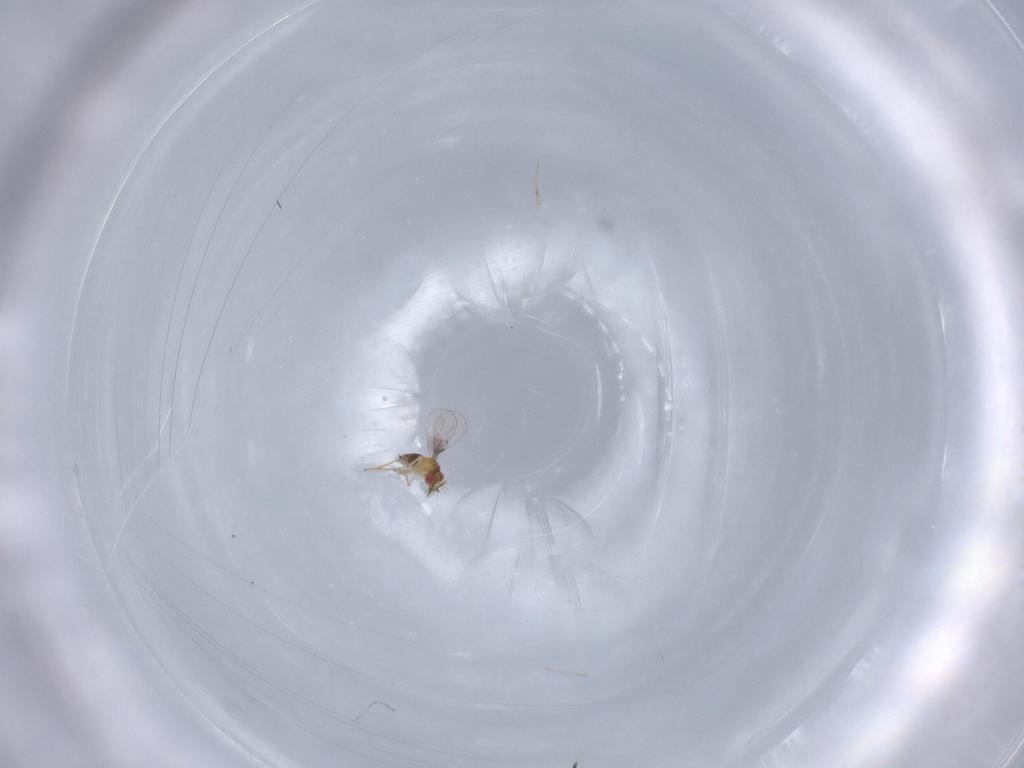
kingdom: Animalia
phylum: Arthropoda
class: Insecta
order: Hymenoptera
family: Trichogrammatidae
